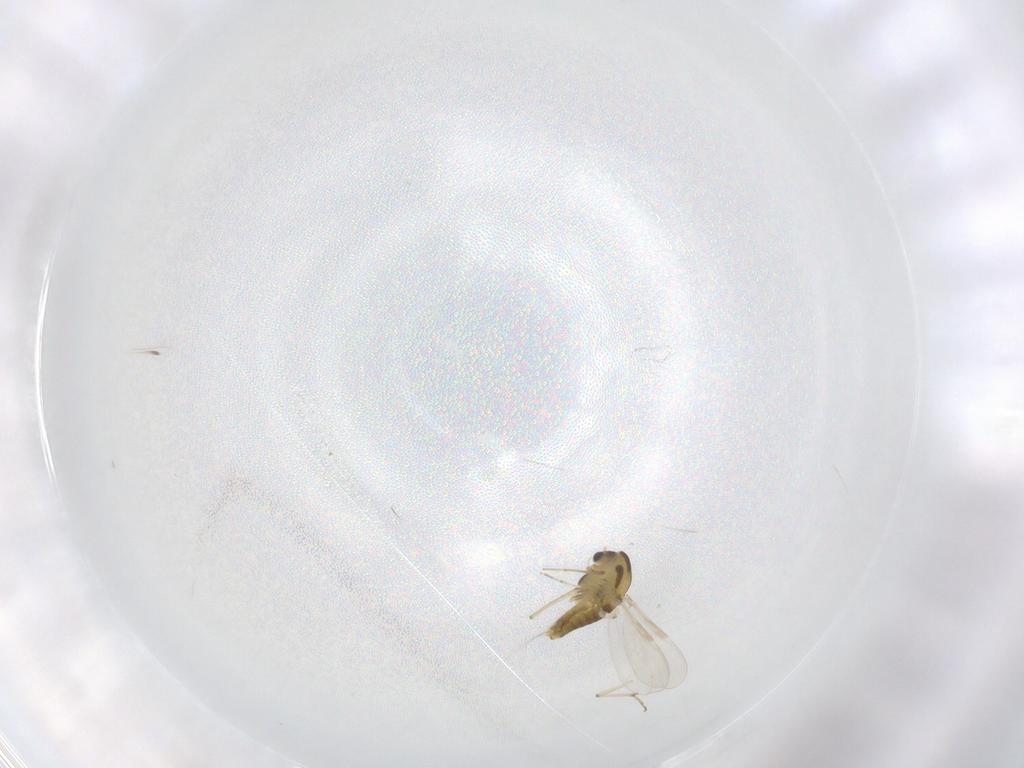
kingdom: Animalia
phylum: Arthropoda
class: Insecta
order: Diptera
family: Chironomidae
